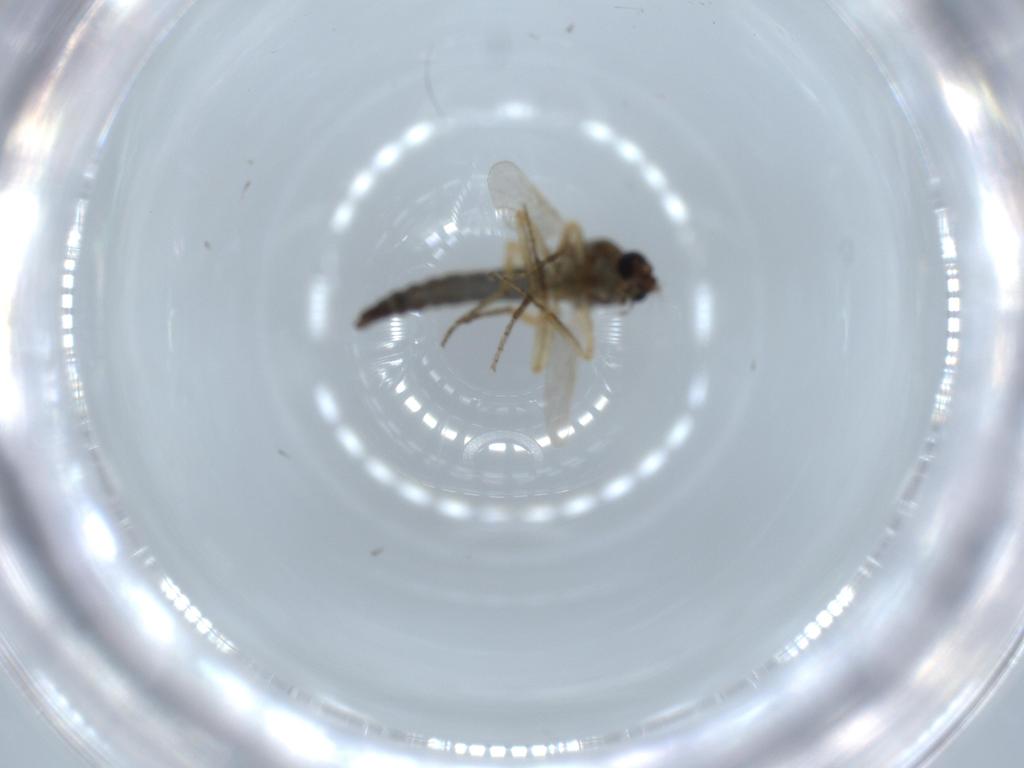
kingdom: Animalia
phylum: Arthropoda
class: Insecta
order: Diptera
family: Ceratopogonidae
